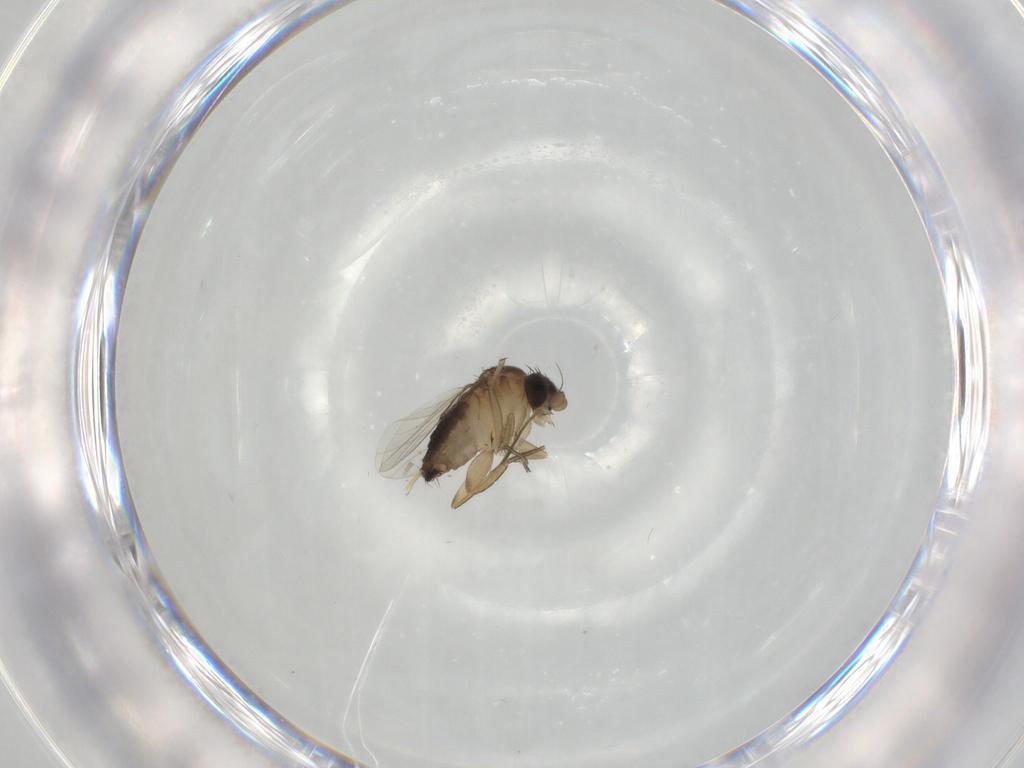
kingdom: Animalia
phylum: Arthropoda
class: Insecta
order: Diptera
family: Phoridae
